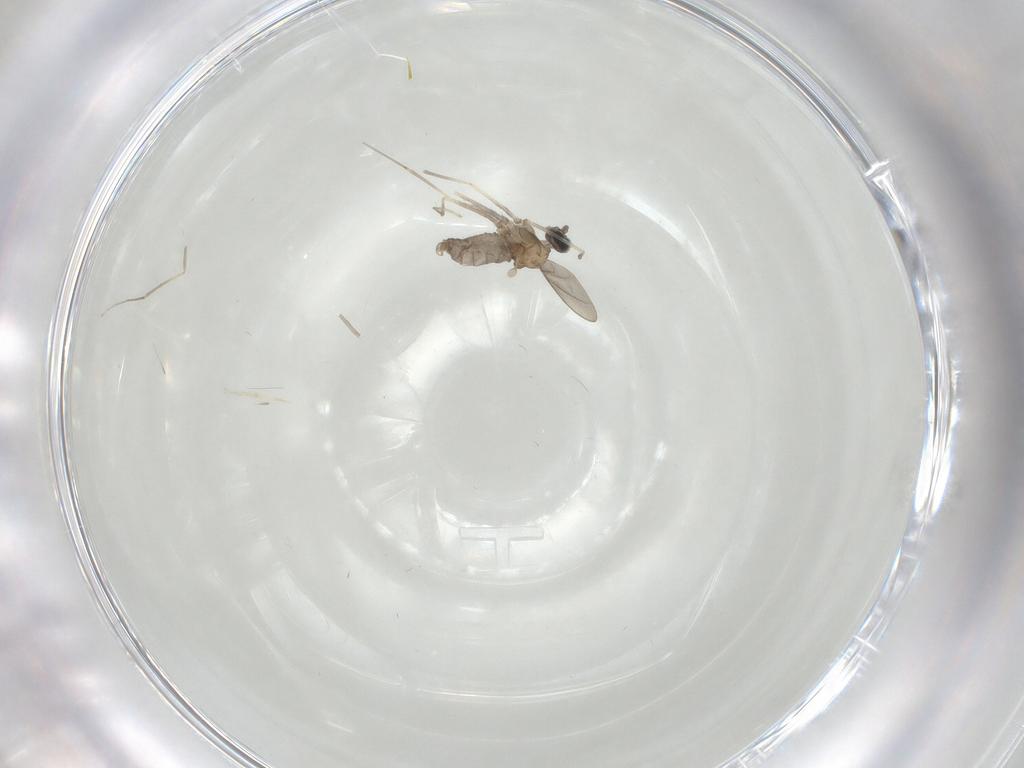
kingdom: Animalia
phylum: Arthropoda
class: Insecta
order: Diptera
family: Cecidomyiidae
